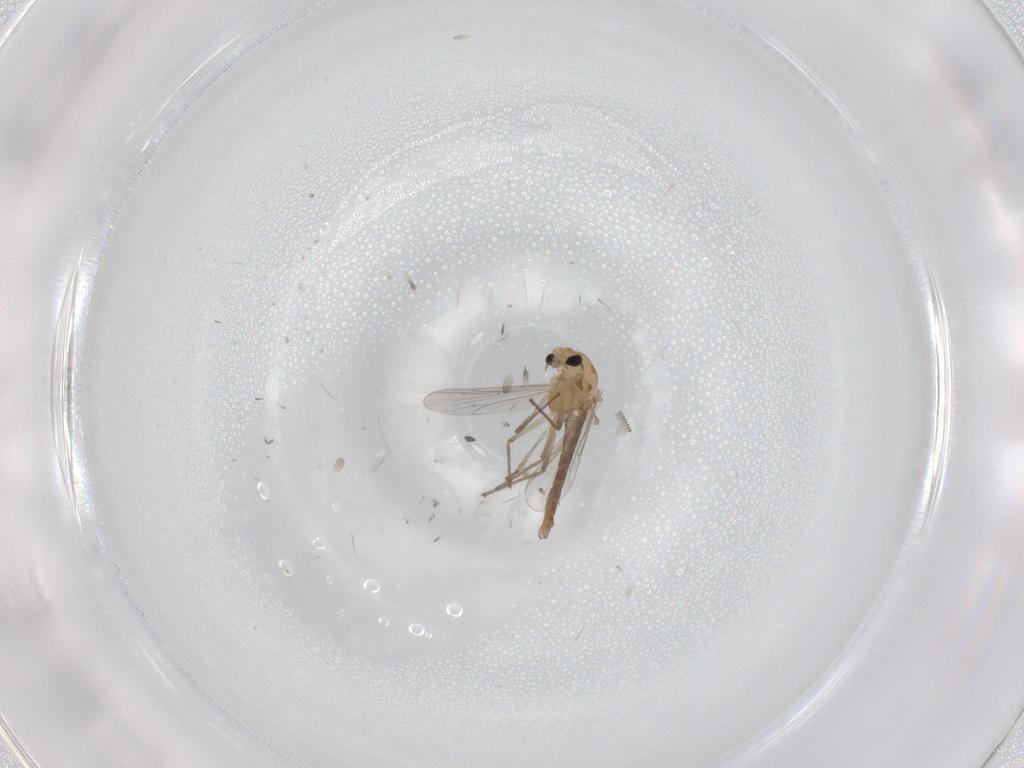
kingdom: Animalia
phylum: Arthropoda
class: Insecta
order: Diptera
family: Chironomidae
